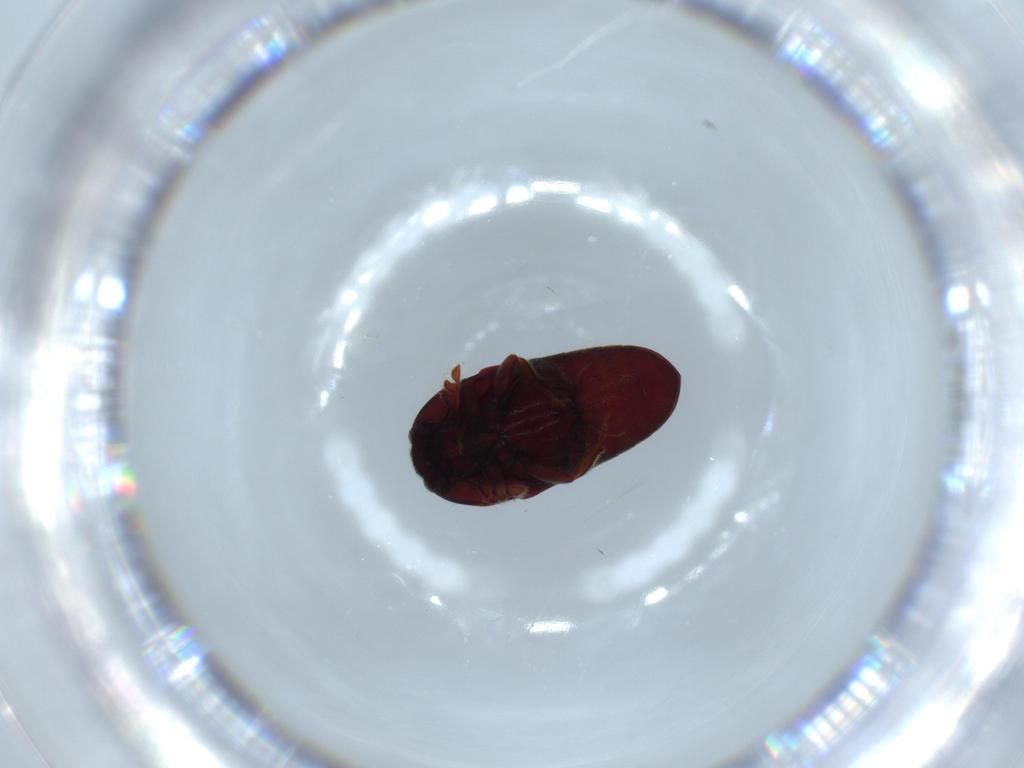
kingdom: Animalia
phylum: Arthropoda
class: Insecta
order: Coleoptera
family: Throscidae
